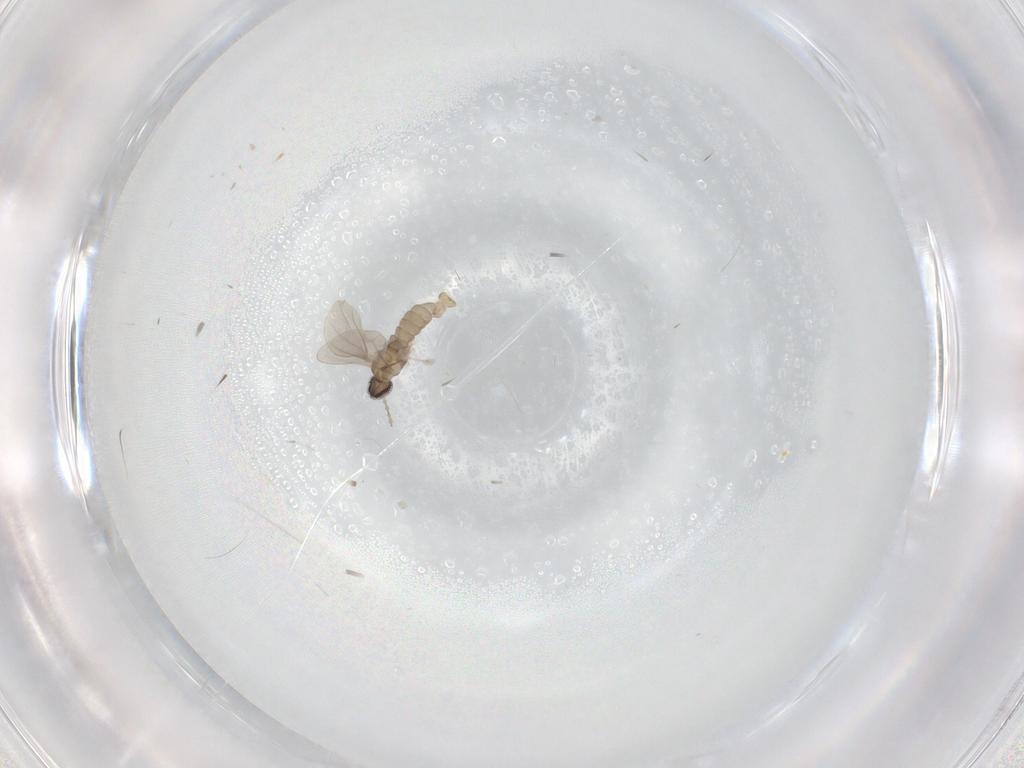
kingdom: Animalia
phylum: Arthropoda
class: Insecta
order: Diptera
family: Cecidomyiidae
